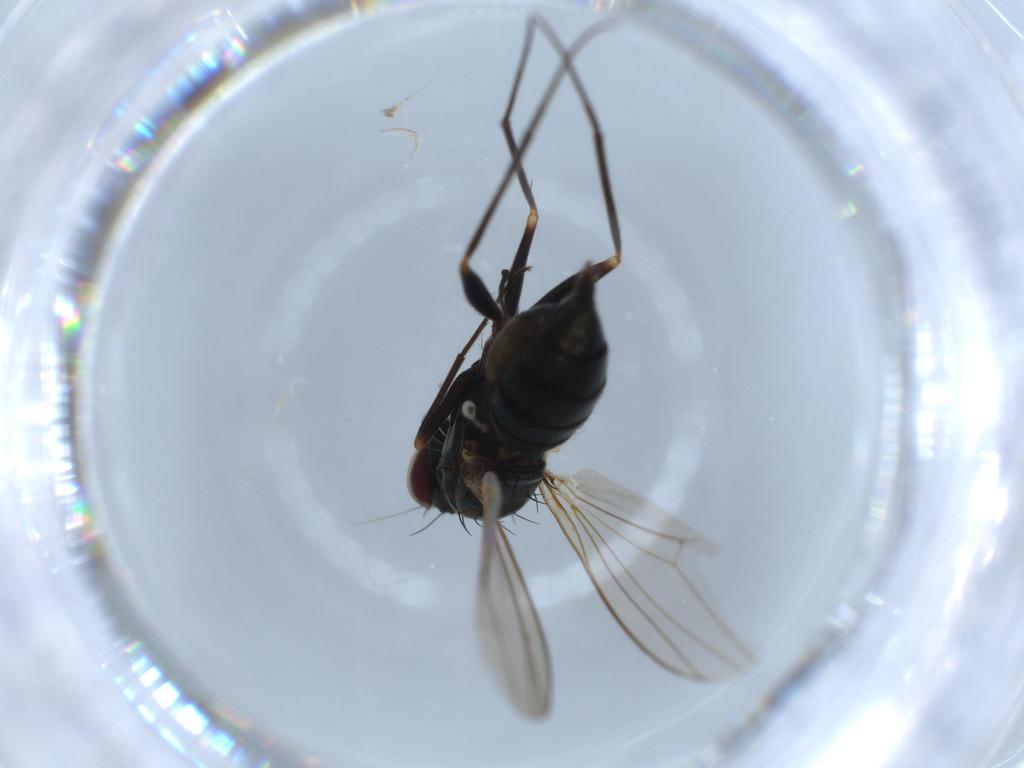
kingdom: Animalia
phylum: Arthropoda
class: Insecta
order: Diptera
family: Dolichopodidae
